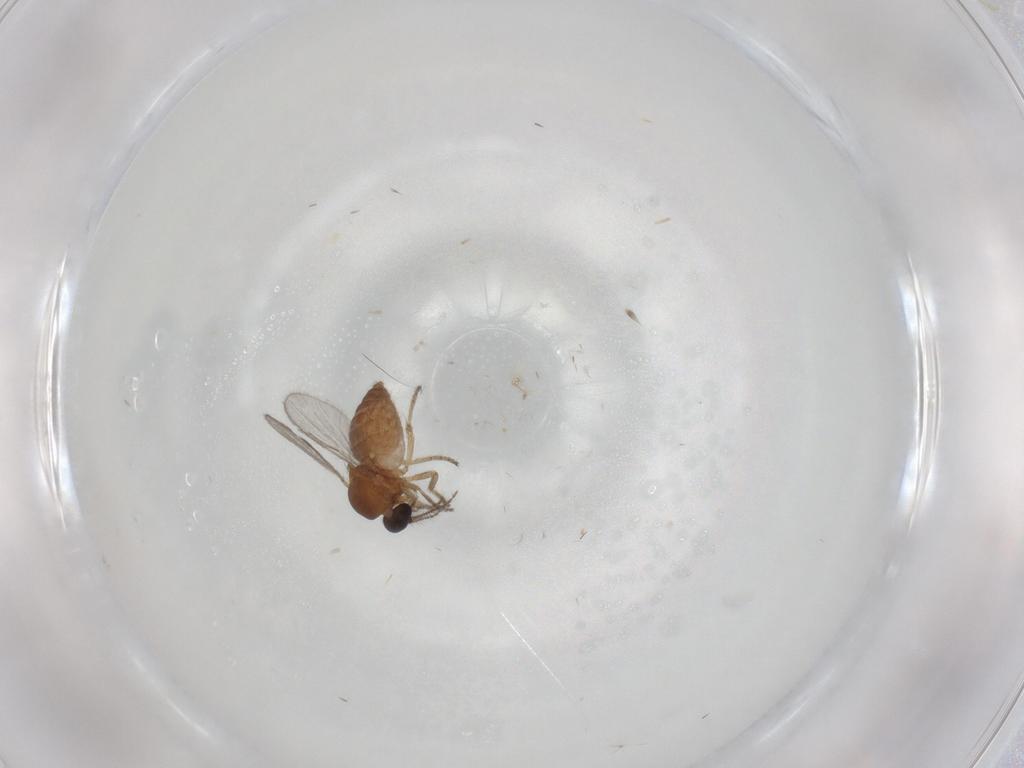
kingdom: Animalia
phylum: Arthropoda
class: Insecta
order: Diptera
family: Ceratopogonidae
